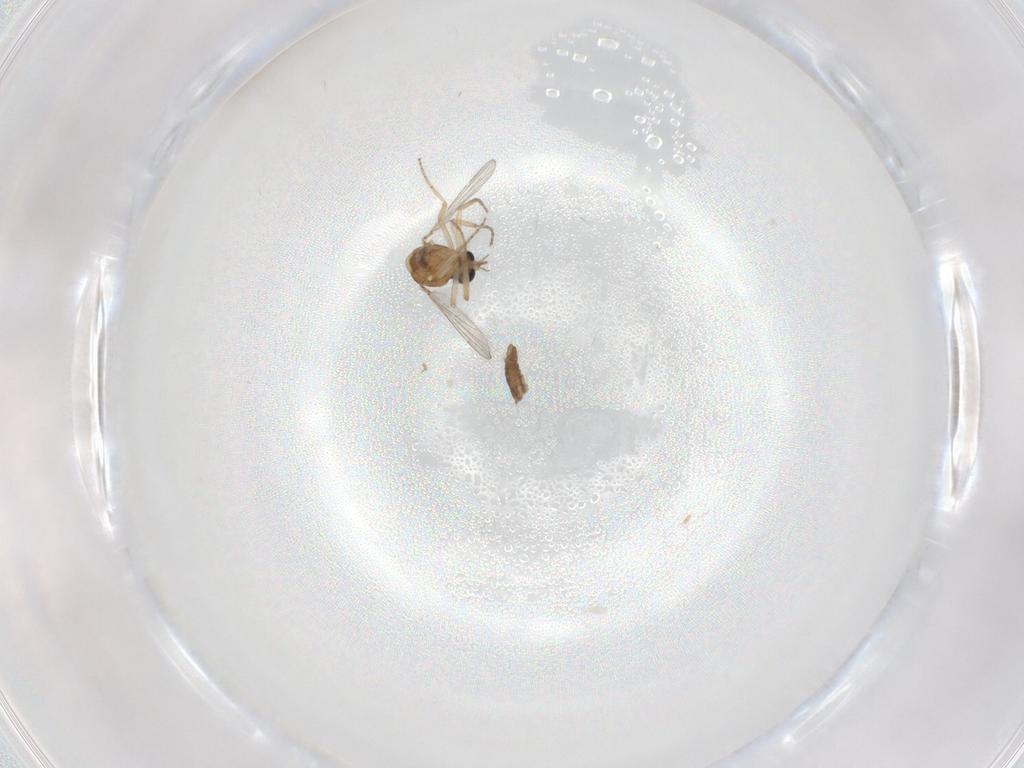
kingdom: Animalia
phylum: Arthropoda
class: Insecta
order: Diptera
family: Chironomidae
